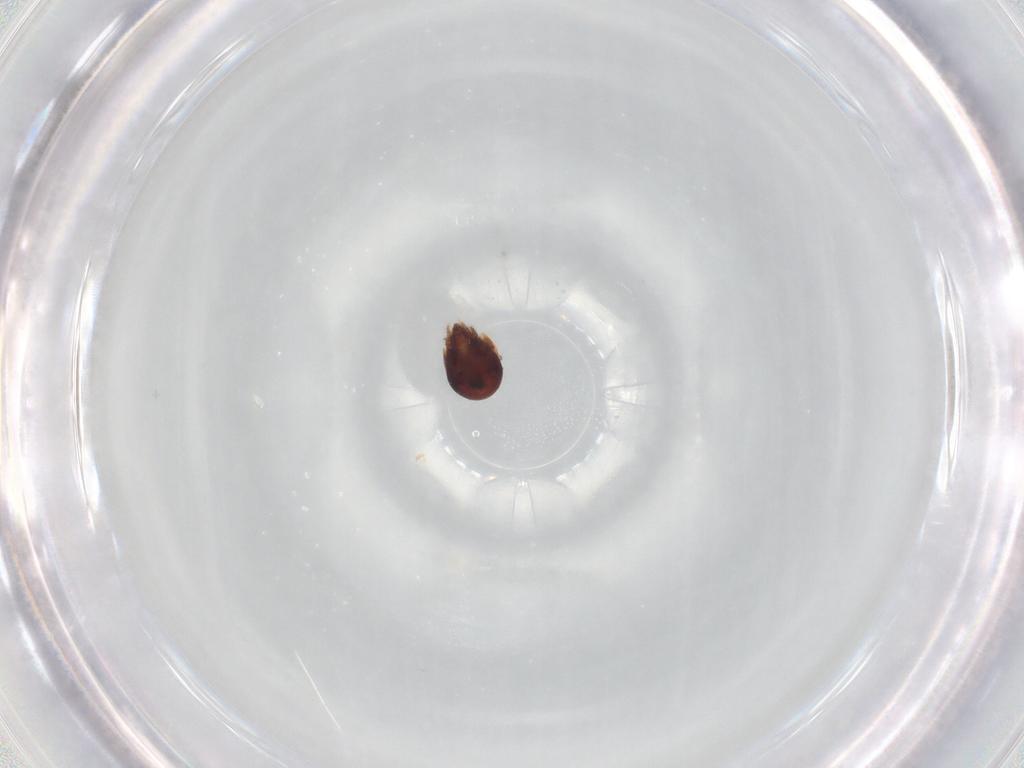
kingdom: Animalia
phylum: Arthropoda
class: Arachnida
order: Sarcoptiformes
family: Humerobatidae
